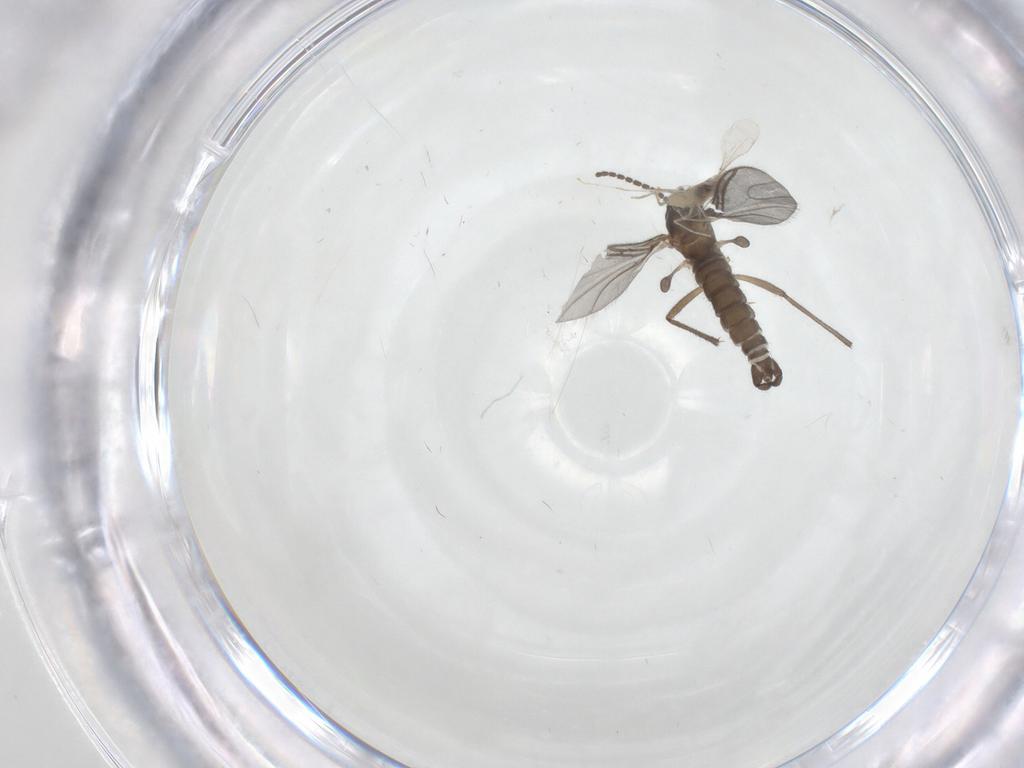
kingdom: Animalia
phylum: Arthropoda
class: Insecta
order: Diptera
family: Sciaridae
